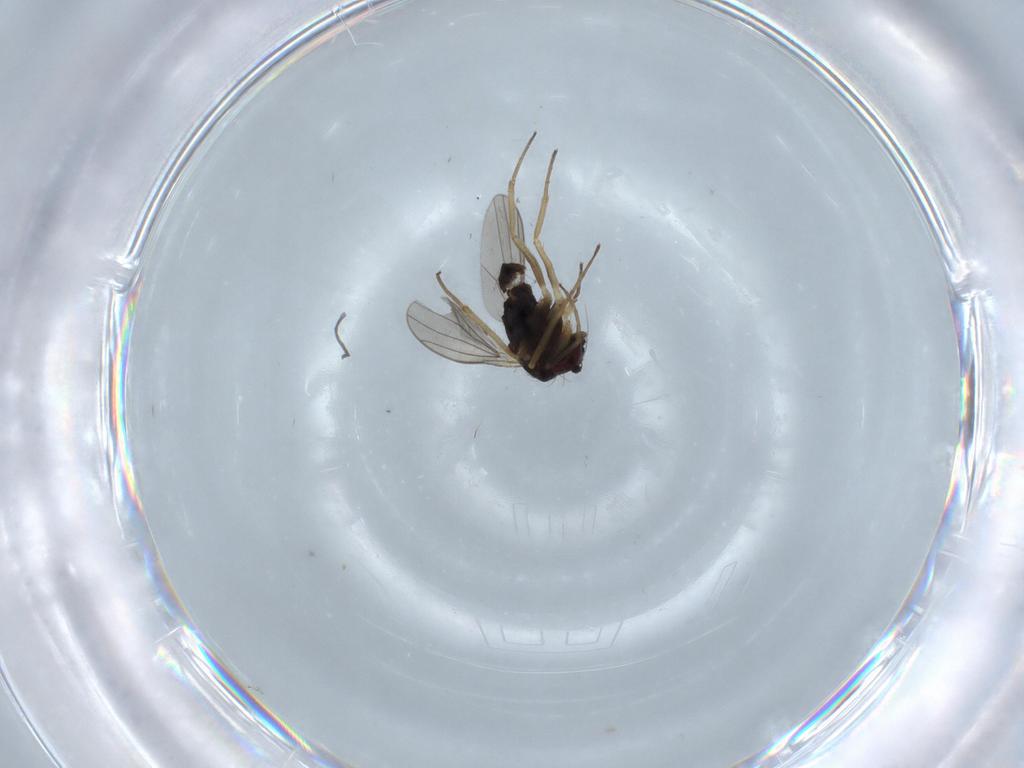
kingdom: Animalia
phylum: Arthropoda
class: Insecta
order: Diptera
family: Dolichopodidae
